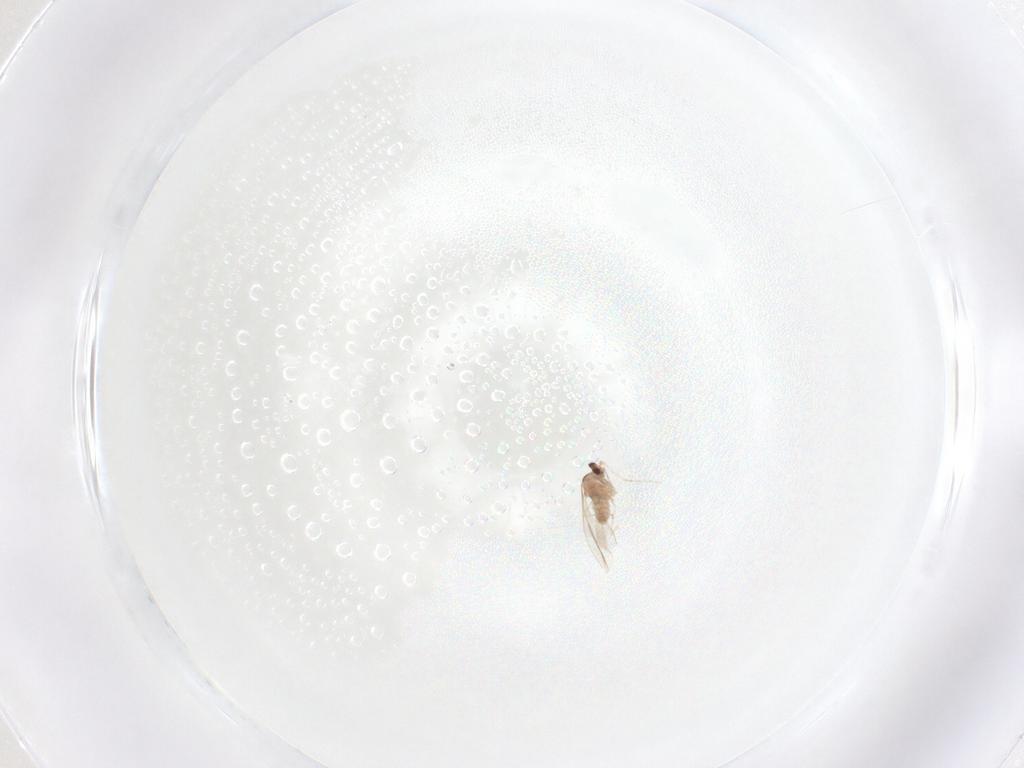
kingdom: Animalia
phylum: Arthropoda
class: Insecta
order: Diptera
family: Cecidomyiidae
